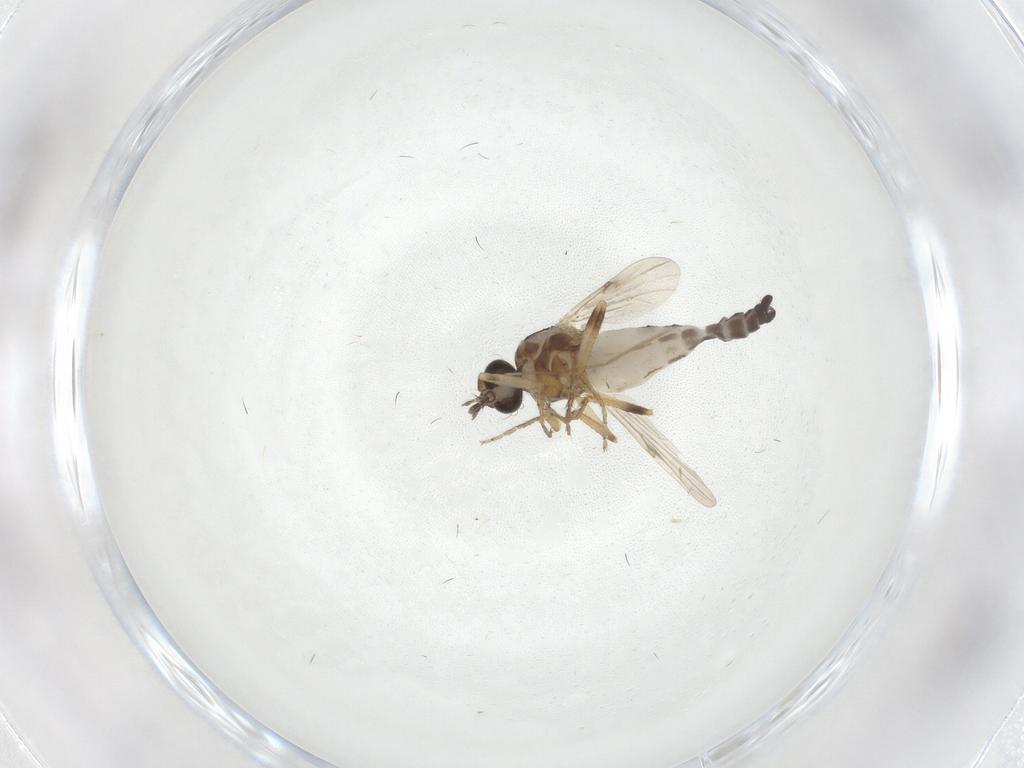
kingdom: Animalia
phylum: Arthropoda
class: Insecta
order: Diptera
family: Ceratopogonidae
